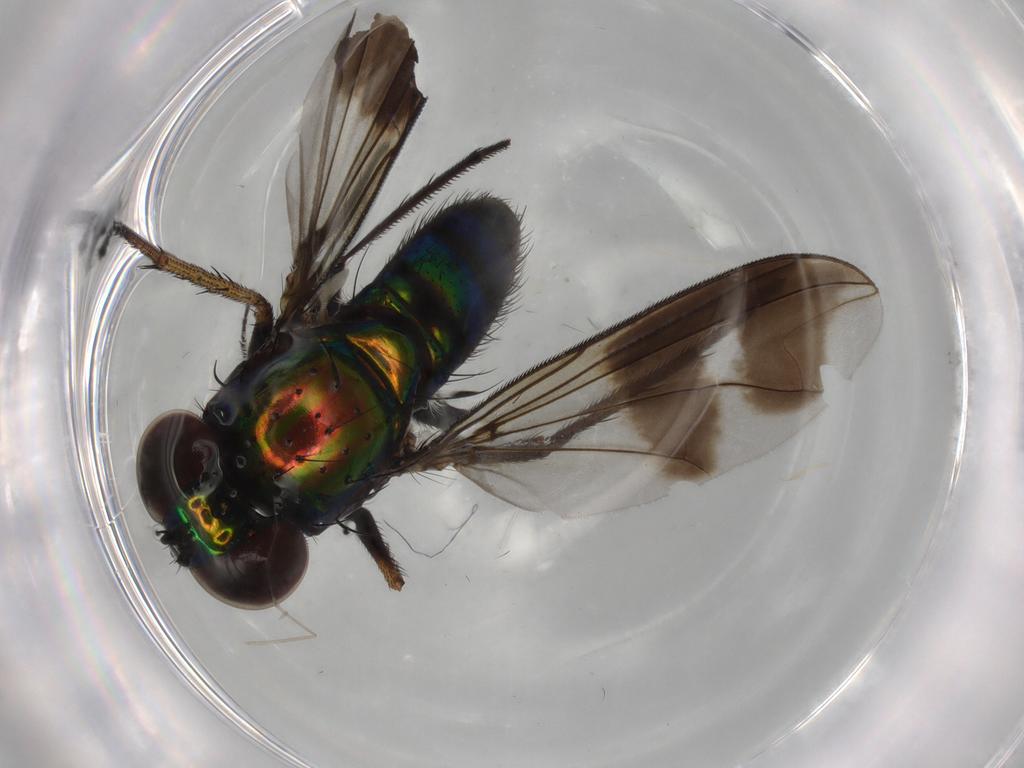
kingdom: Animalia
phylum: Arthropoda
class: Insecta
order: Diptera
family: Dolichopodidae
